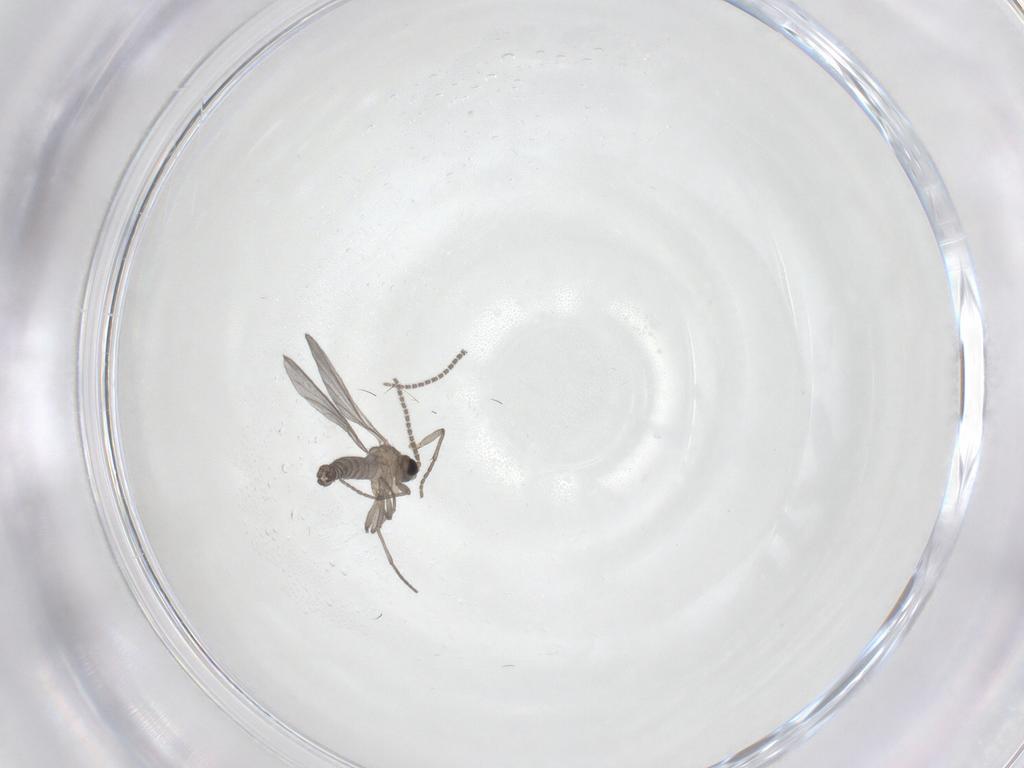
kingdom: Animalia
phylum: Arthropoda
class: Insecta
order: Diptera
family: Sciaridae
